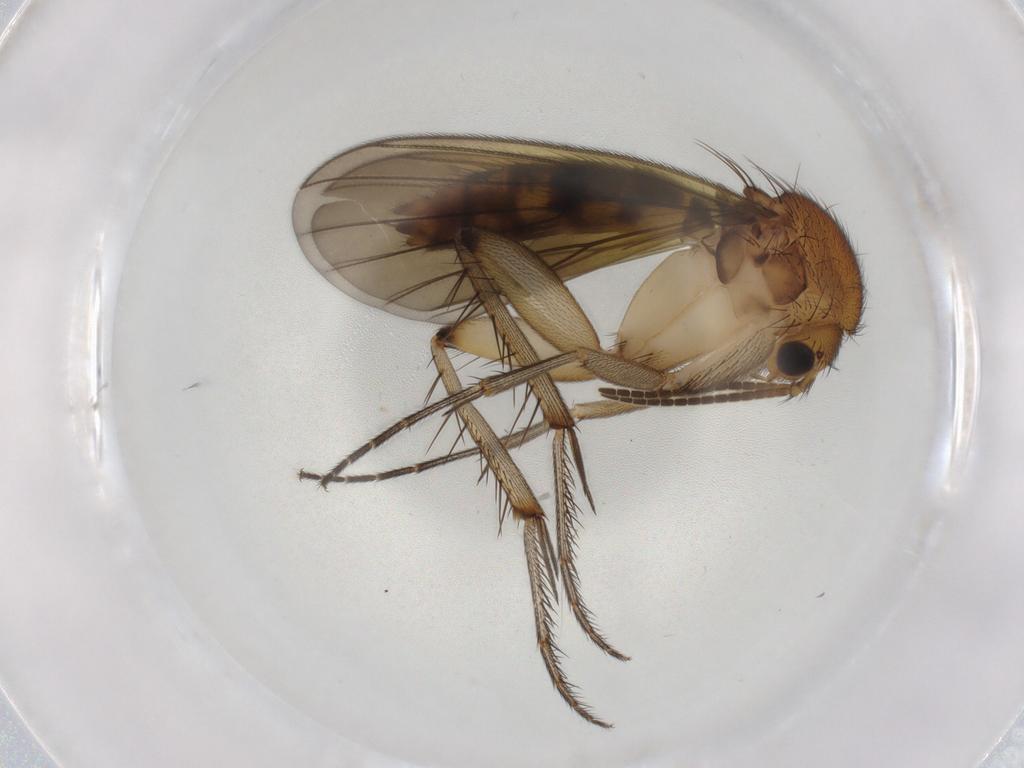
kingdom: Animalia
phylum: Arthropoda
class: Insecta
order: Diptera
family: Mycetophilidae
